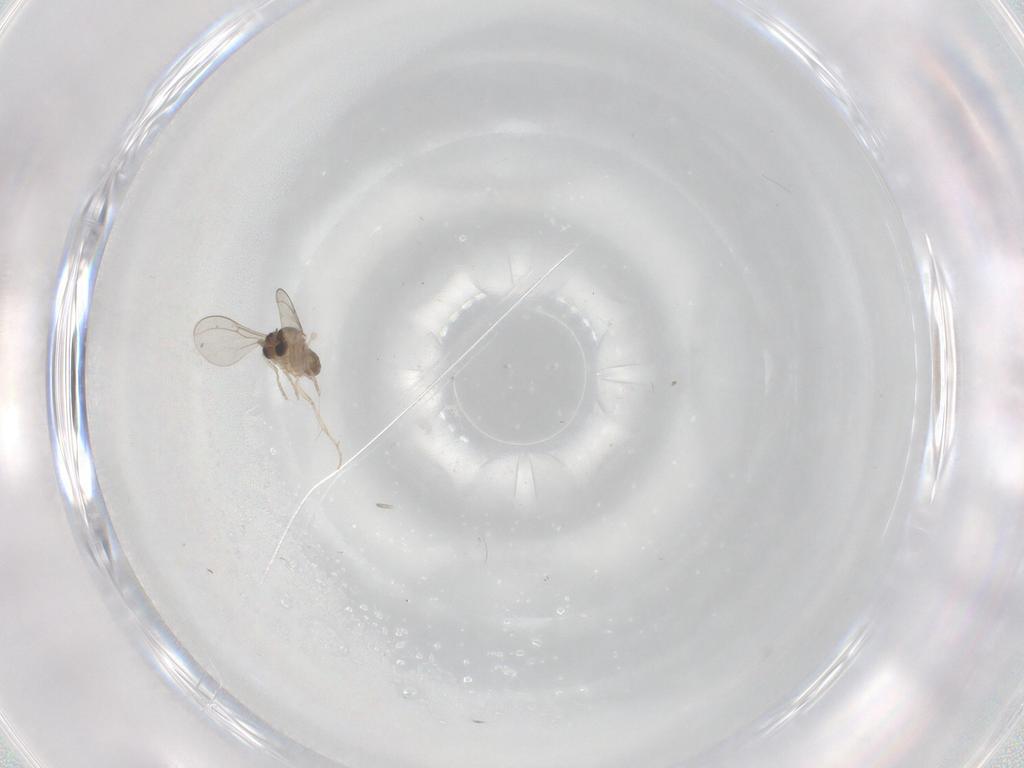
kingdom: Animalia
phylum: Arthropoda
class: Insecta
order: Diptera
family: Cecidomyiidae
